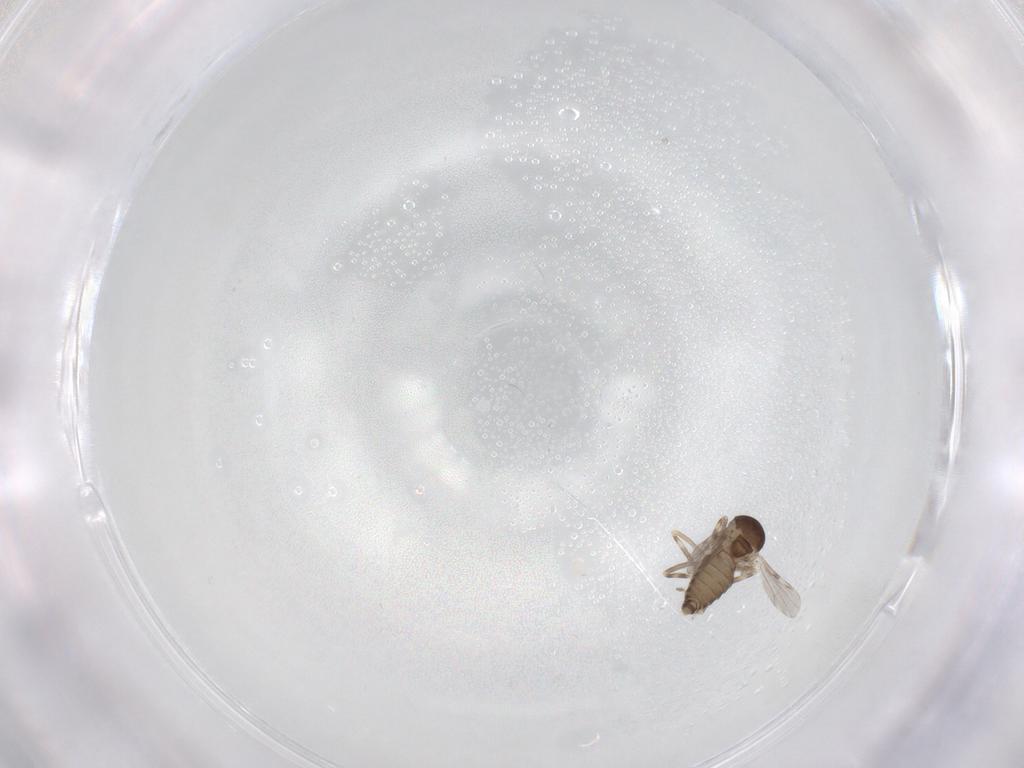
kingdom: Animalia
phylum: Arthropoda
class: Insecta
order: Diptera
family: Ceratopogonidae
